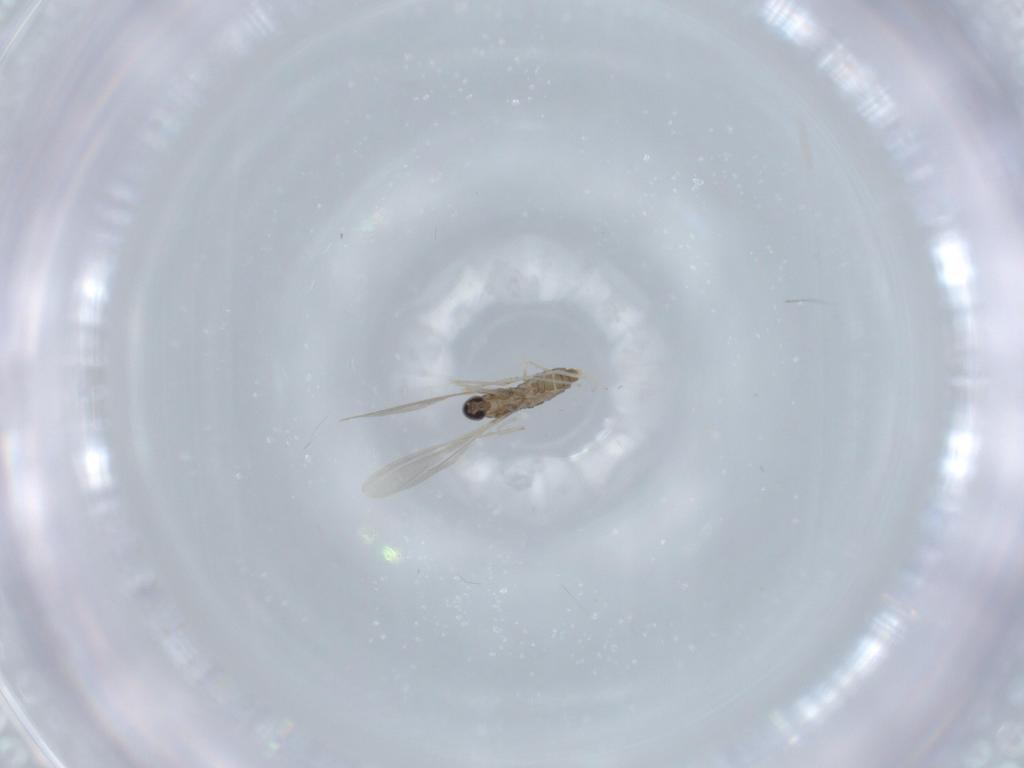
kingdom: Animalia
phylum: Arthropoda
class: Insecta
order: Diptera
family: Cecidomyiidae
